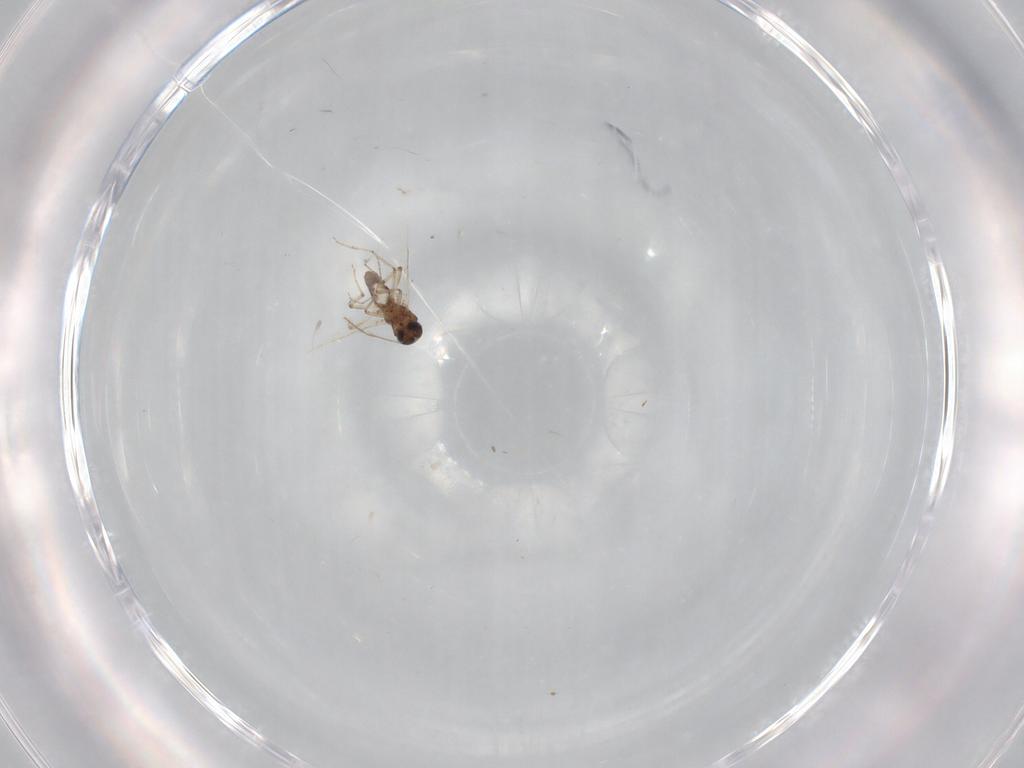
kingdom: Animalia
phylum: Arthropoda
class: Insecta
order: Diptera
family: Ceratopogonidae
